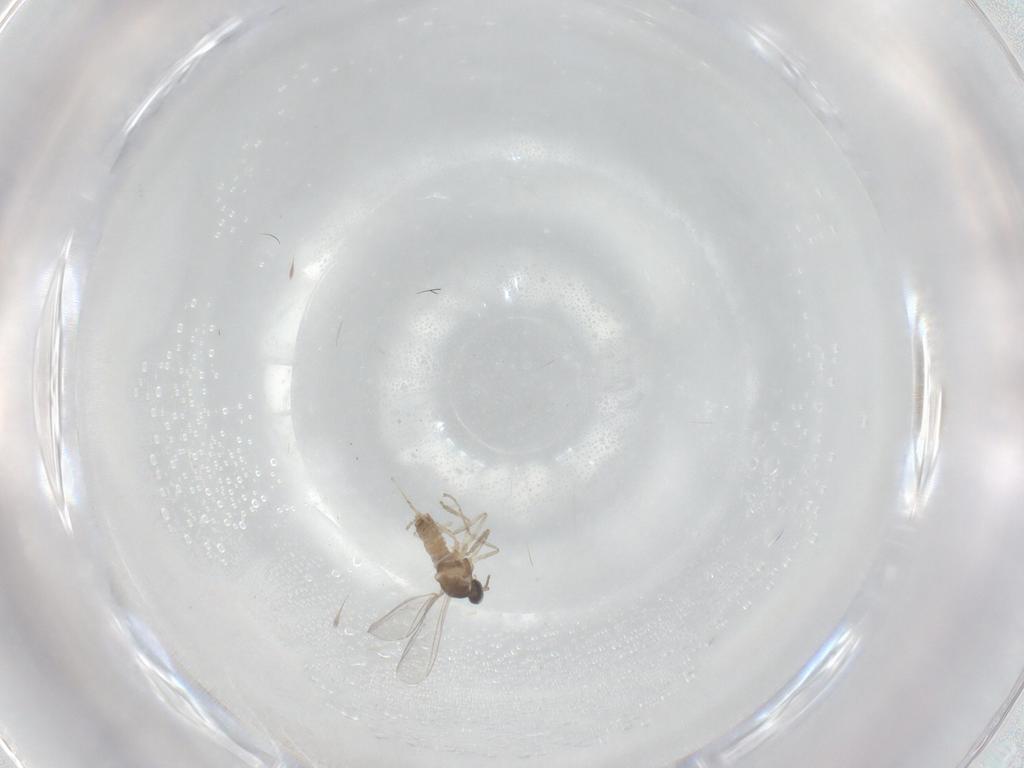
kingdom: Animalia
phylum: Arthropoda
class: Insecta
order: Diptera
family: Cecidomyiidae
